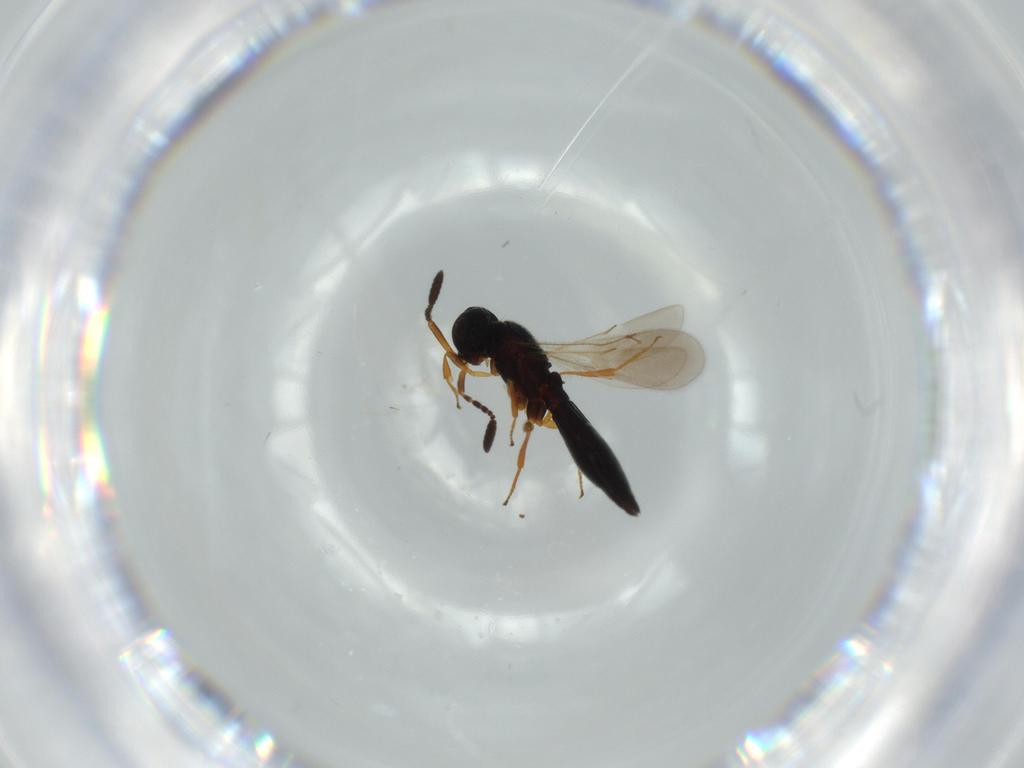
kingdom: Animalia
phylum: Arthropoda
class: Insecta
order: Hymenoptera
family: Scelionidae
